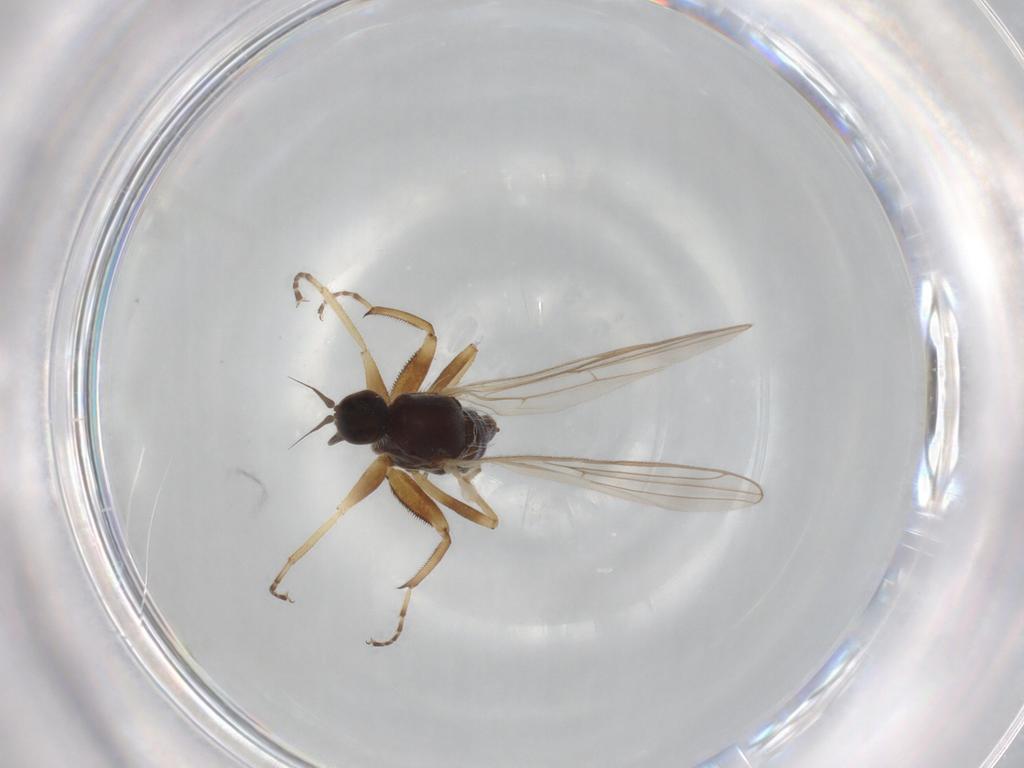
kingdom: Animalia
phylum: Arthropoda
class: Insecta
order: Diptera
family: Hybotidae
